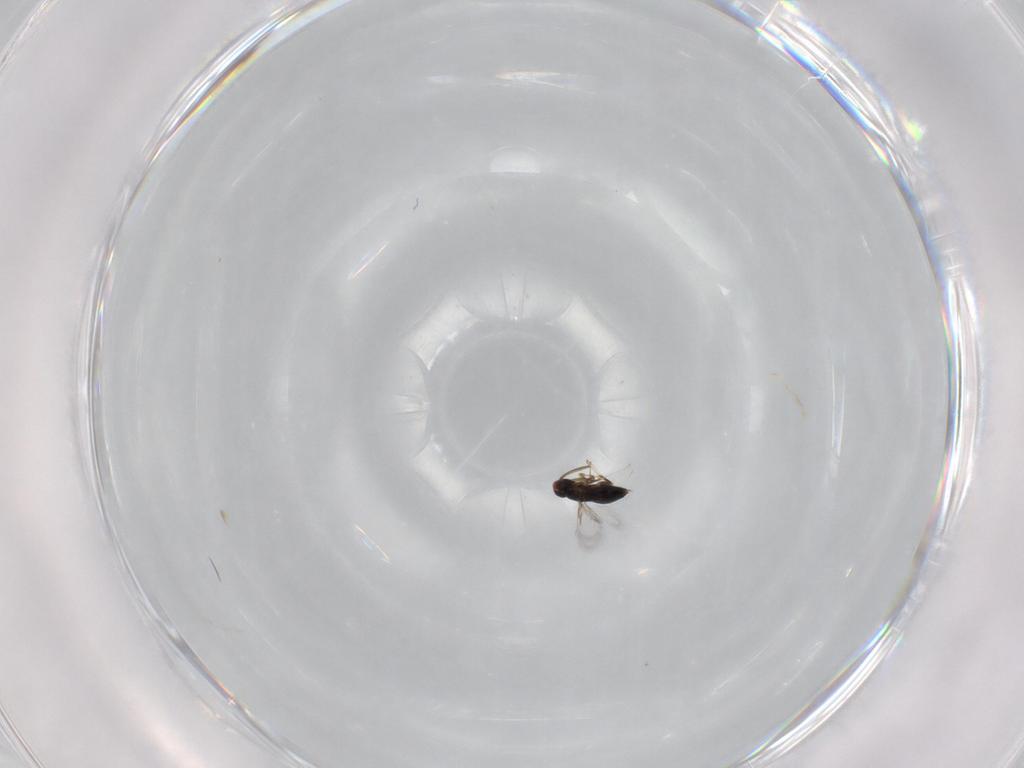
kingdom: Animalia
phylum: Arthropoda
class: Insecta
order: Hymenoptera
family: Signiphoridae
